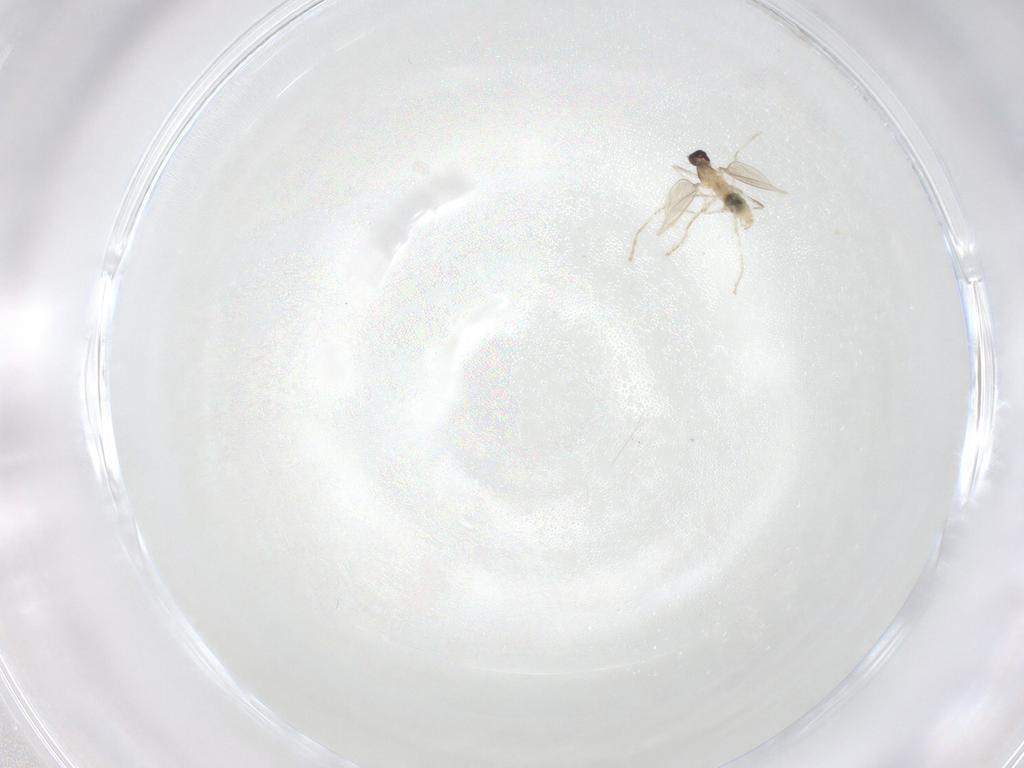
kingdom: Animalia
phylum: Arthropoda
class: Insecta
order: Diptera
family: Cecidomyiidae
